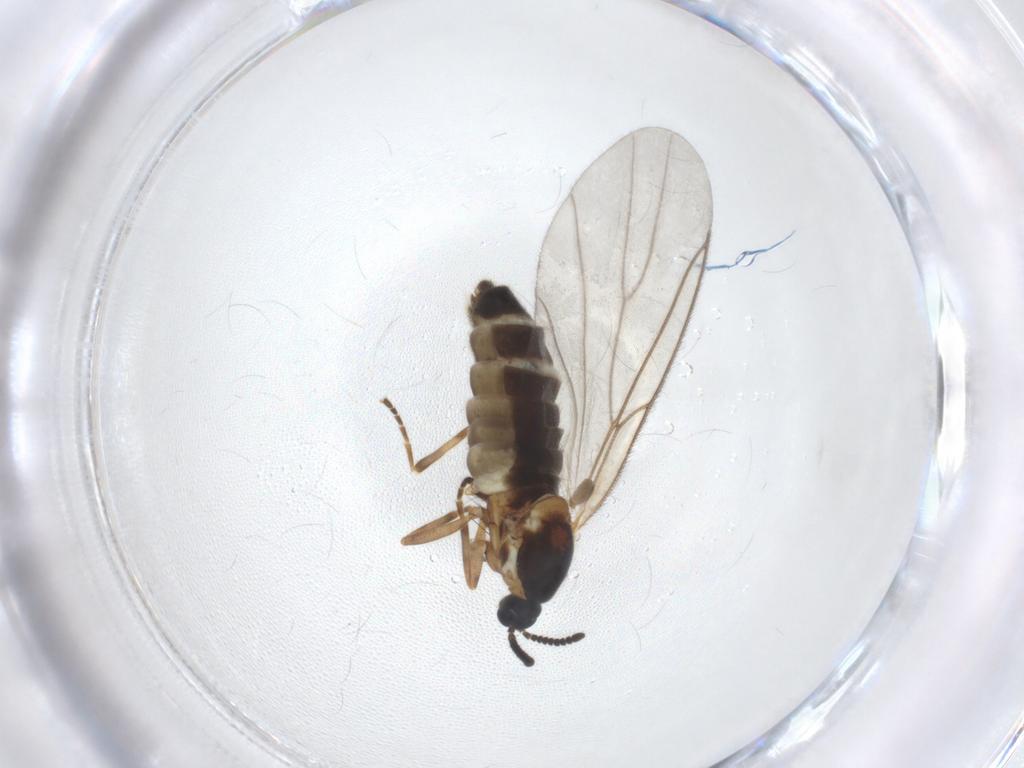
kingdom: Animalia
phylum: Arthropoda
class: Insecta
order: Diptera
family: Scatopsidae
